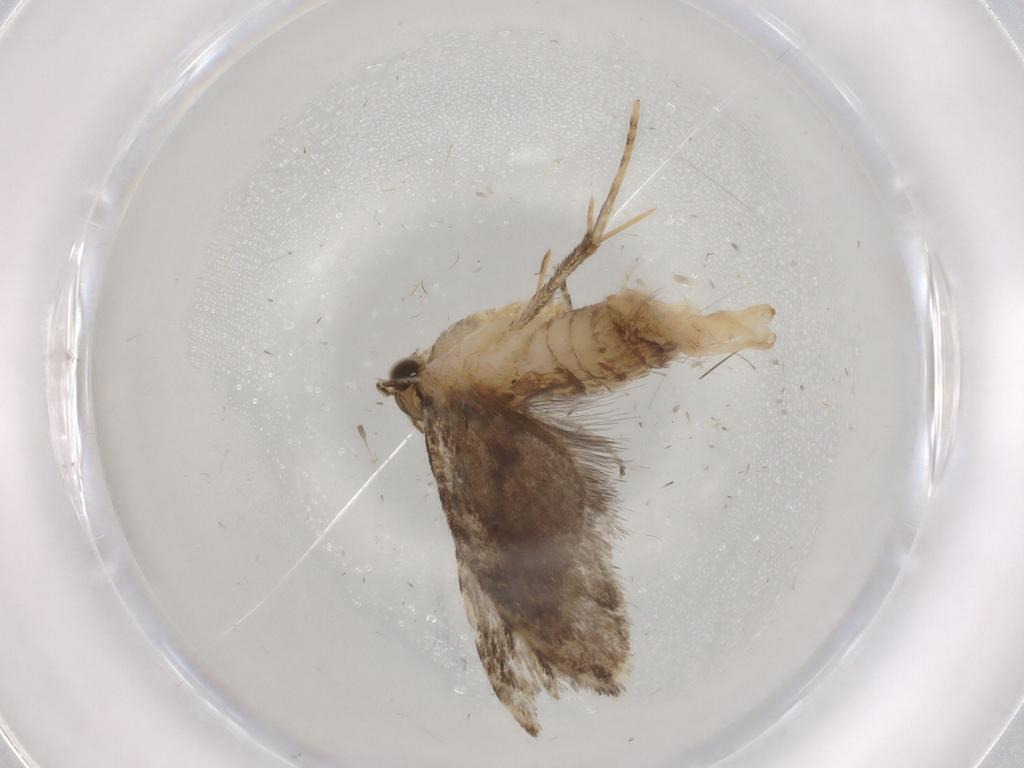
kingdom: Animalia
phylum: Arthropoda
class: Insecta
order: Lepidoptera
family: Tineidae
